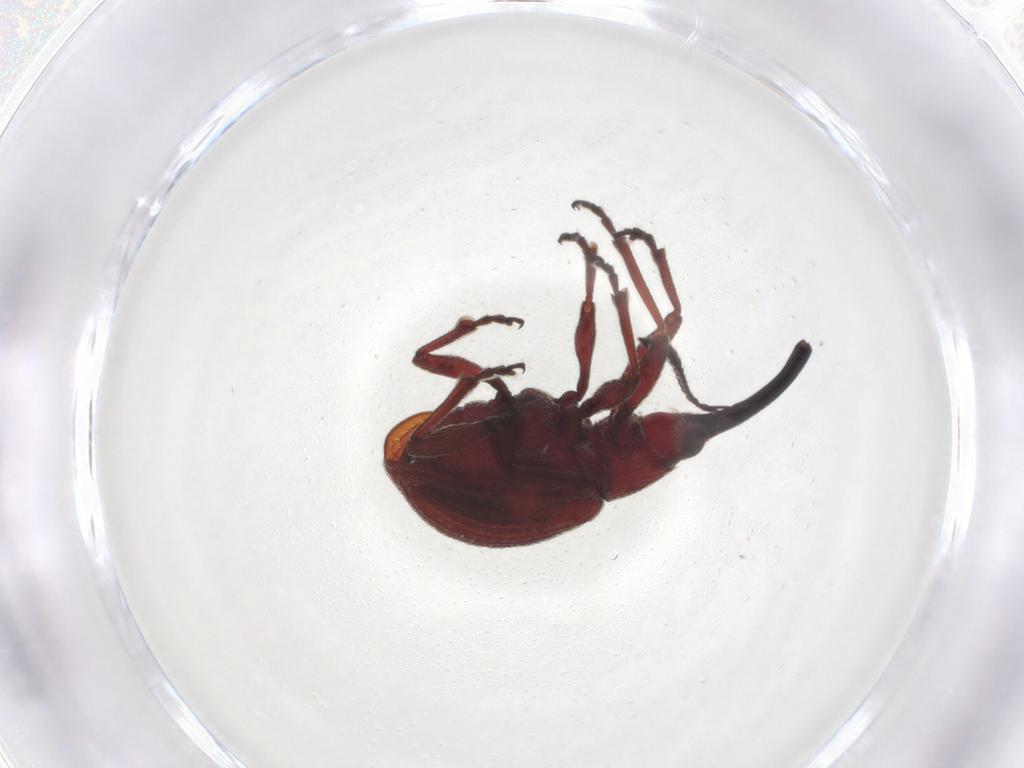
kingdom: Animalia
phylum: Arthropoda
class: Insecta
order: Coleoptera
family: Brentidae
